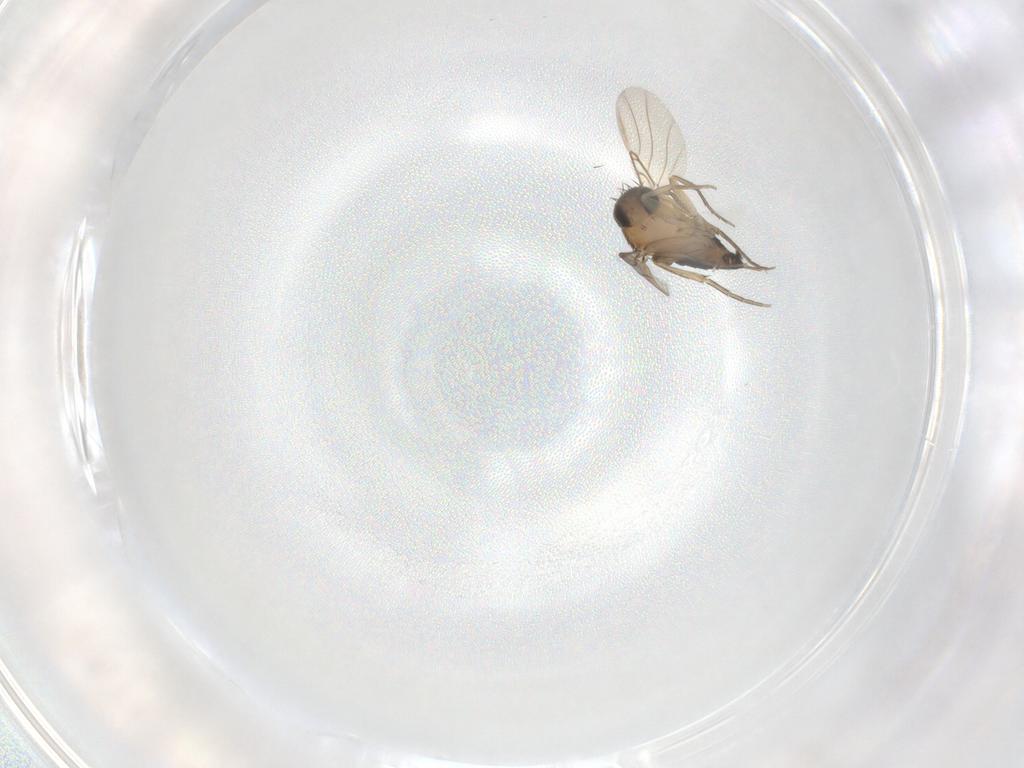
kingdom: Animalia
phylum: Arthropoda
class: Insecta
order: Diptera
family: Phoridae
